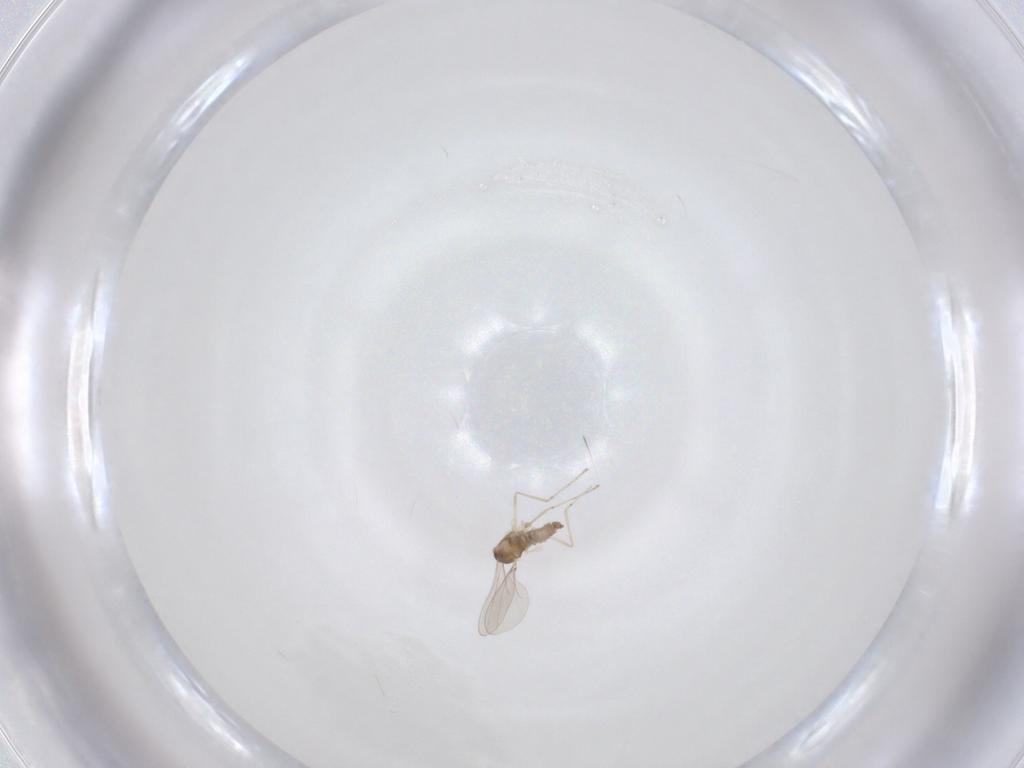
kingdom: Animalia
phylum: Arthropoda
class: Insecta
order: Diptera
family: Cecidomyiidae
